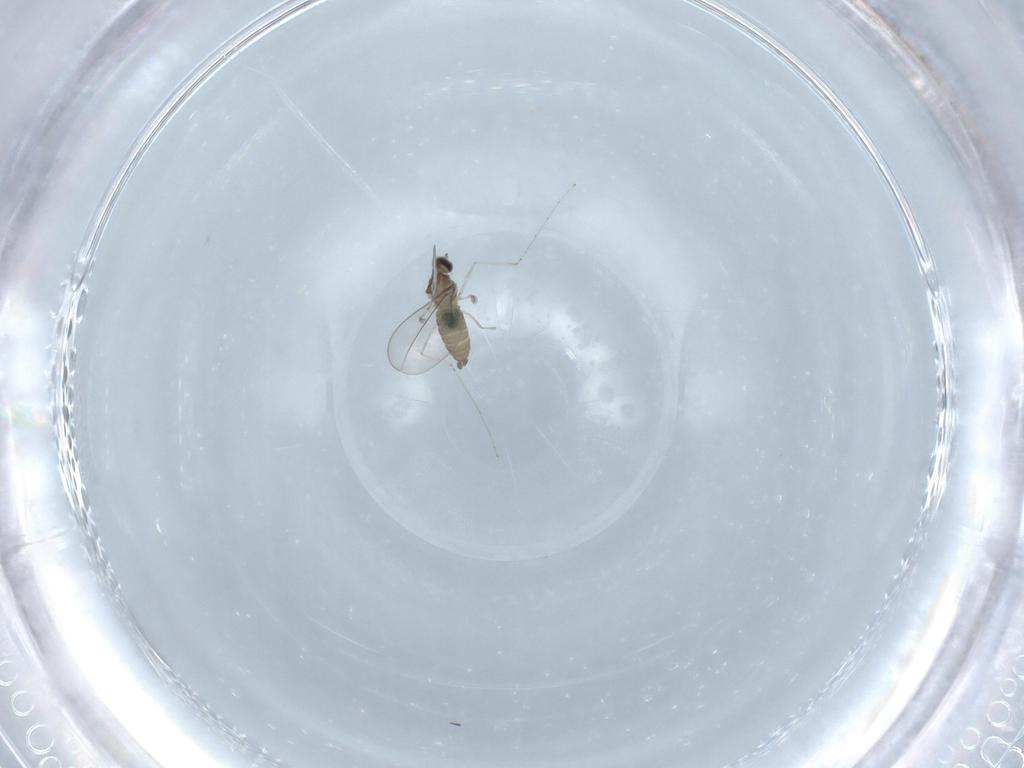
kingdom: Animalia
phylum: Arthropoda
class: Insecta
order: Diptera
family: Cecidomyiidae
